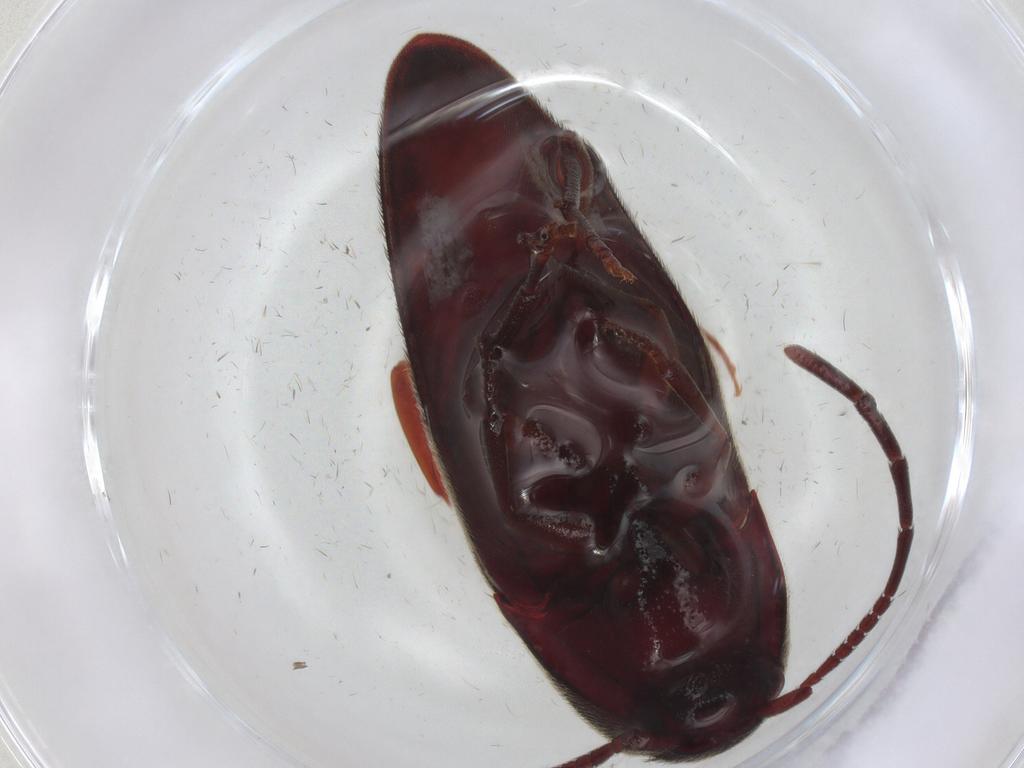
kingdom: Animalia
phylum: Arthropoda
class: Insecta
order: Coleoptera
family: Eucnemidae
